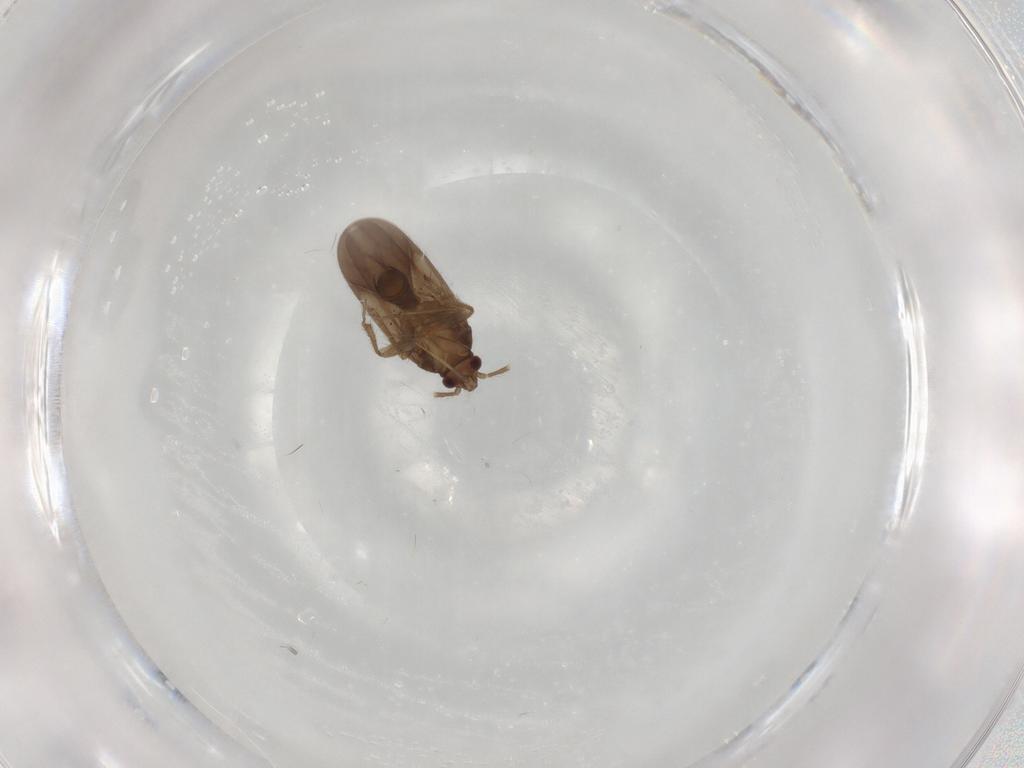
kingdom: Animalia
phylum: Arthropoda
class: Insecta
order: Hemiptera
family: Ceratocombidae
